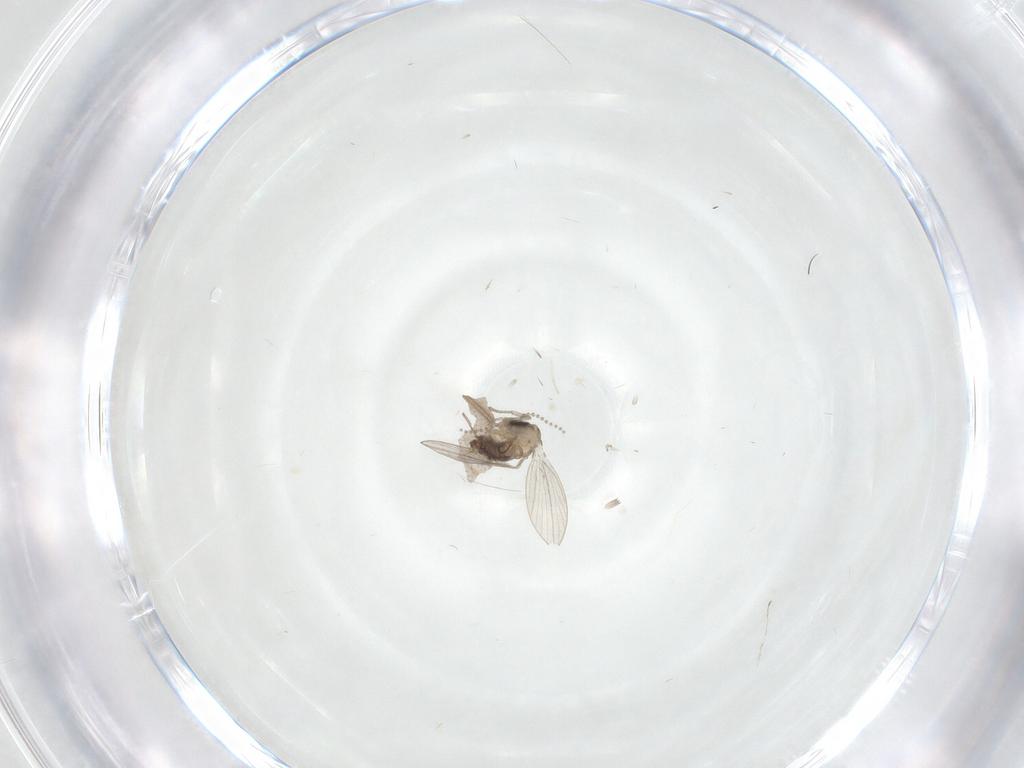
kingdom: Animalia
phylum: Arthropoda
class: Insecta
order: Diptera
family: Psychodidae
